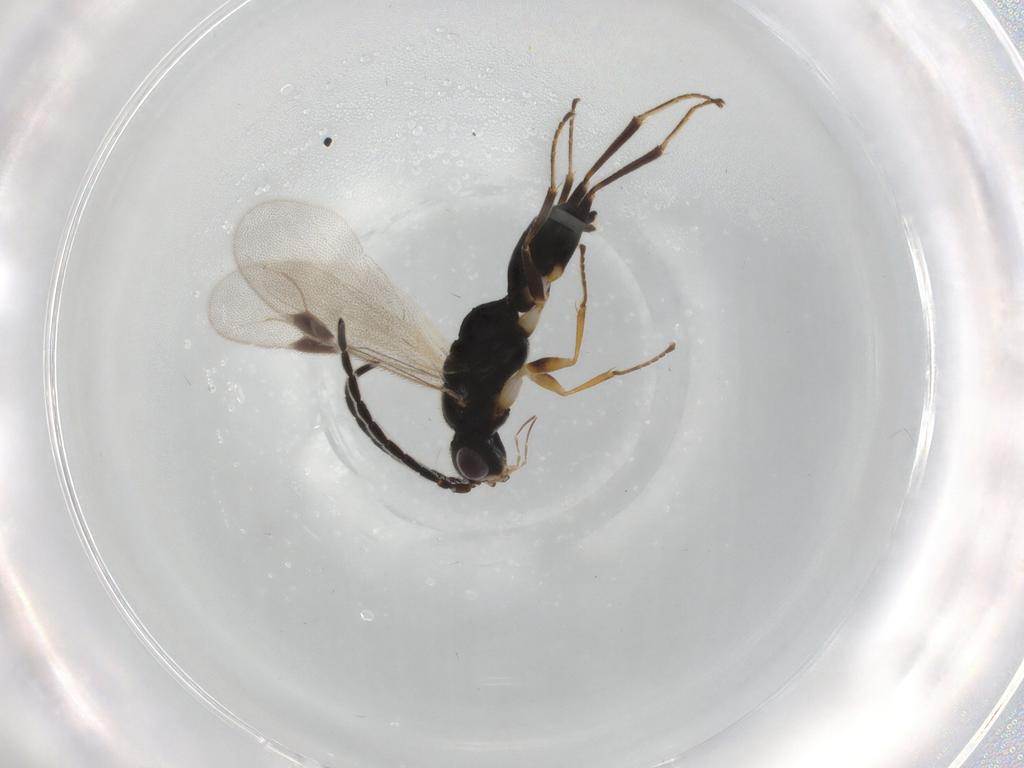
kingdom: Animalia
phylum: Arthropoda
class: Insecta
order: Hymenoptera
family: Dryinidae
